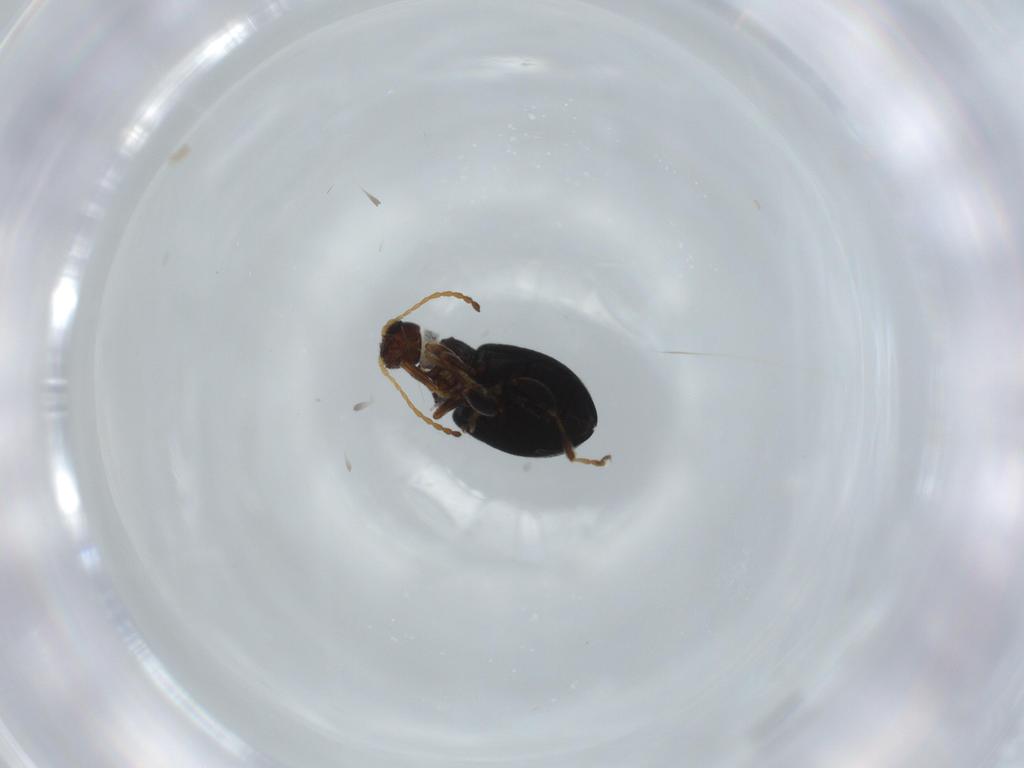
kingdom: Animalia
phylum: Arthropoda
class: Insecta
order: Coleoptera
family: Chrysomelidae
